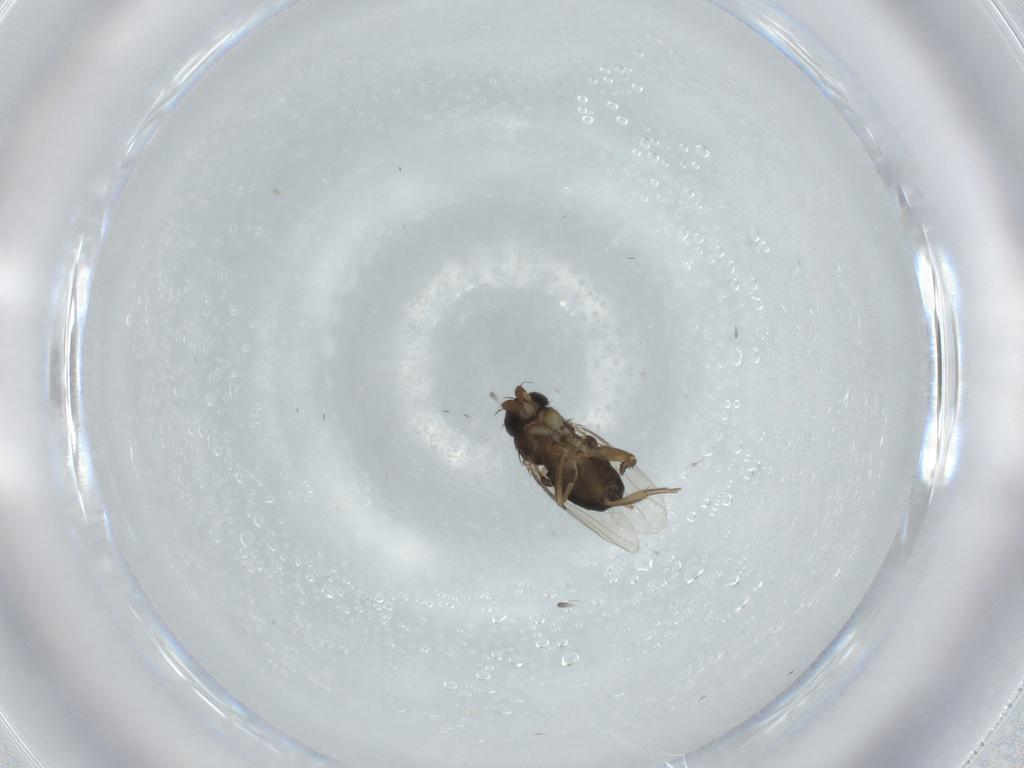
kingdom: Animalia
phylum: Arthropoda
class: Insecta
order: Diptera
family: Phoridae
